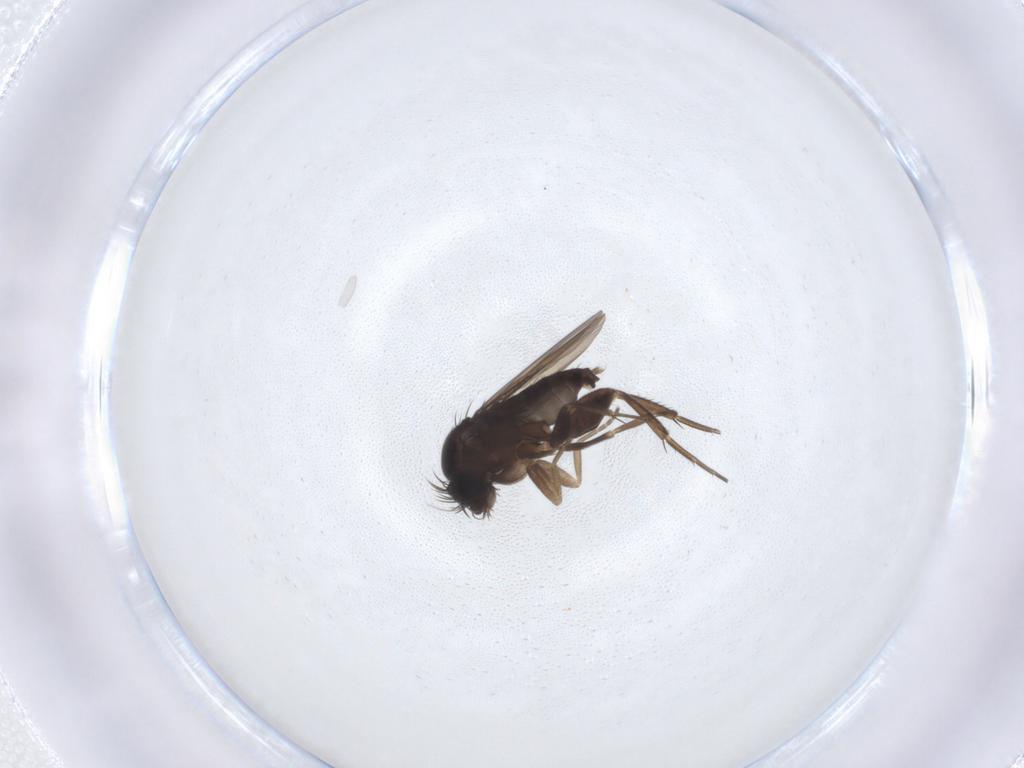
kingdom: Animalia
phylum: Arthropoda
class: Insecta
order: Diptera
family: Phoridae
